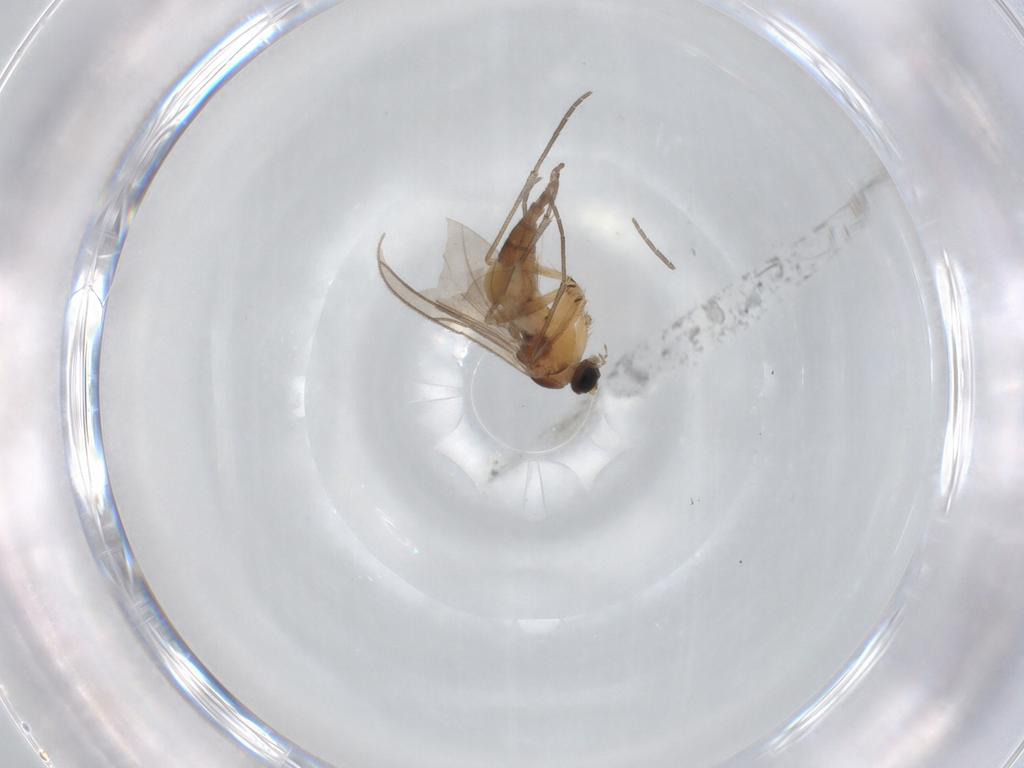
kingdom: Animalia
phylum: Arthropoda
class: Insecta
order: Diptera
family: Sciaridae
